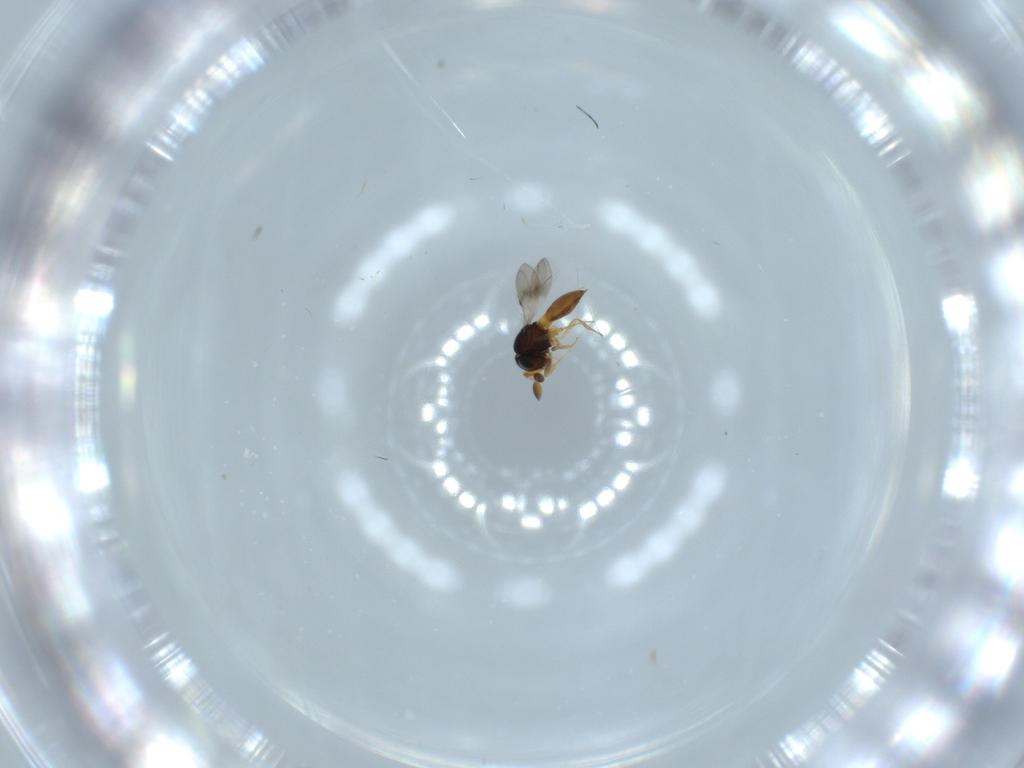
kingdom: Animalia
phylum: Arthropoda
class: Insecta
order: Hymenoptera
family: Scelionidae
